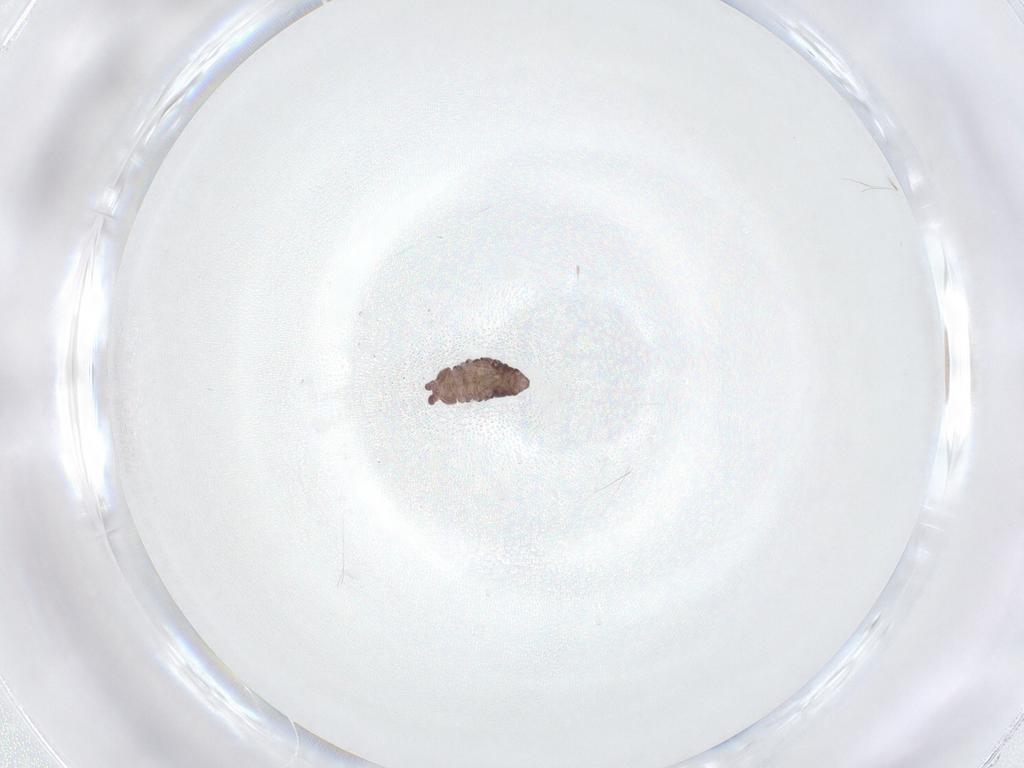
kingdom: Animalia
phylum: Arthropoda
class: Collembola
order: Poduromorpha
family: Hypogastruridae
